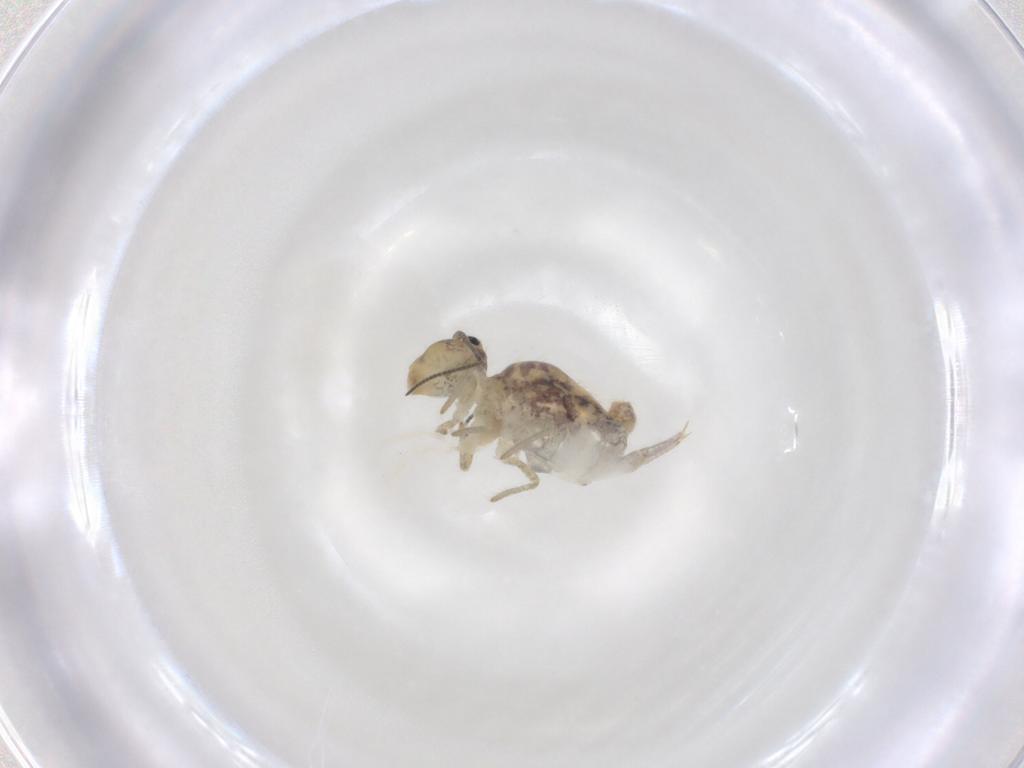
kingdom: Animalia
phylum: Arthropoda
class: Collembola
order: Symphypleona
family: Sminthuridae
